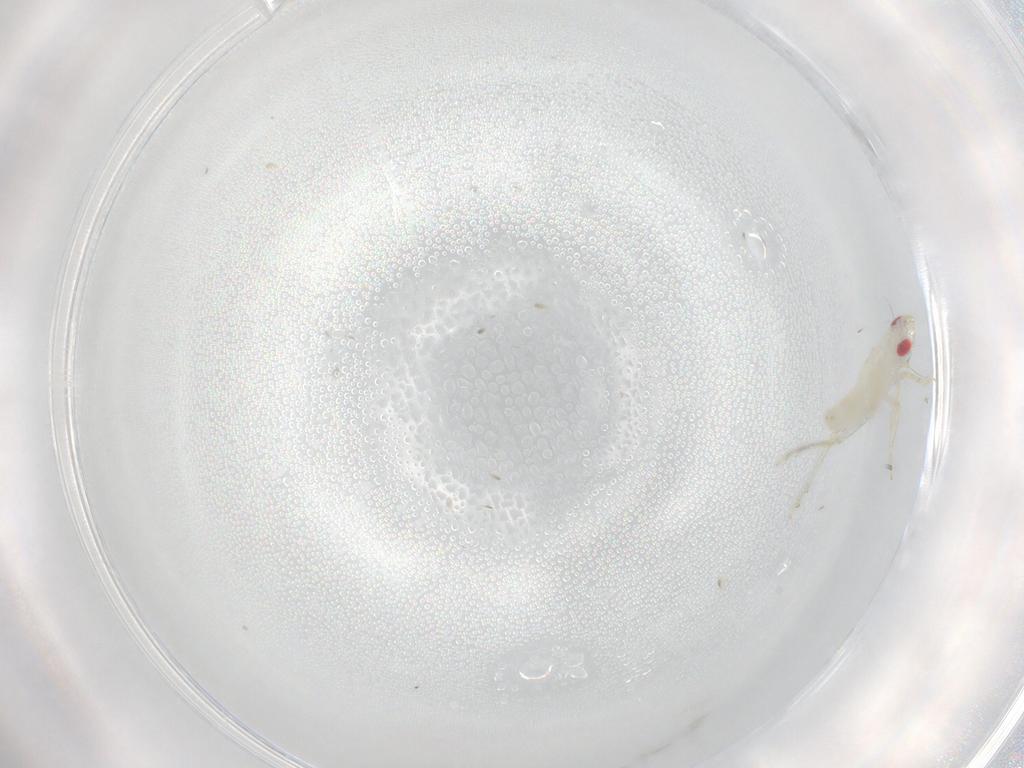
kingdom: Animalia
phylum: Arthropoda
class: Insecta
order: Hemiptera
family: Tropiduchidae
